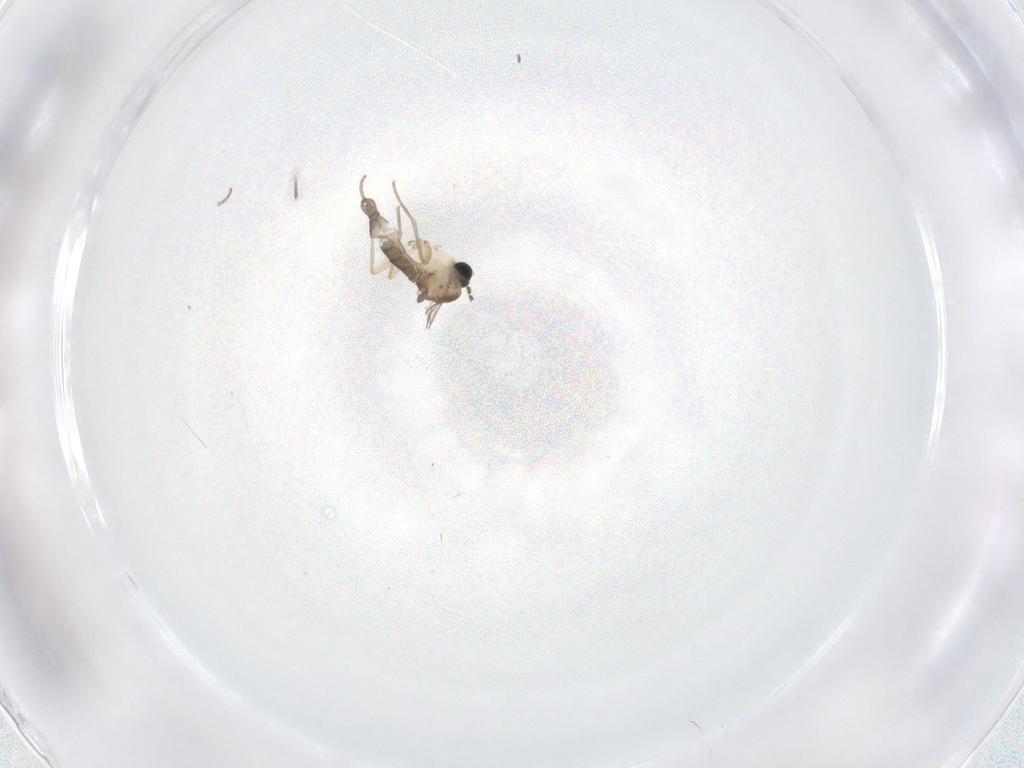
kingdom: Animalia
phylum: Arthropoda
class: Insecta
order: Diptera
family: Sciaridae
